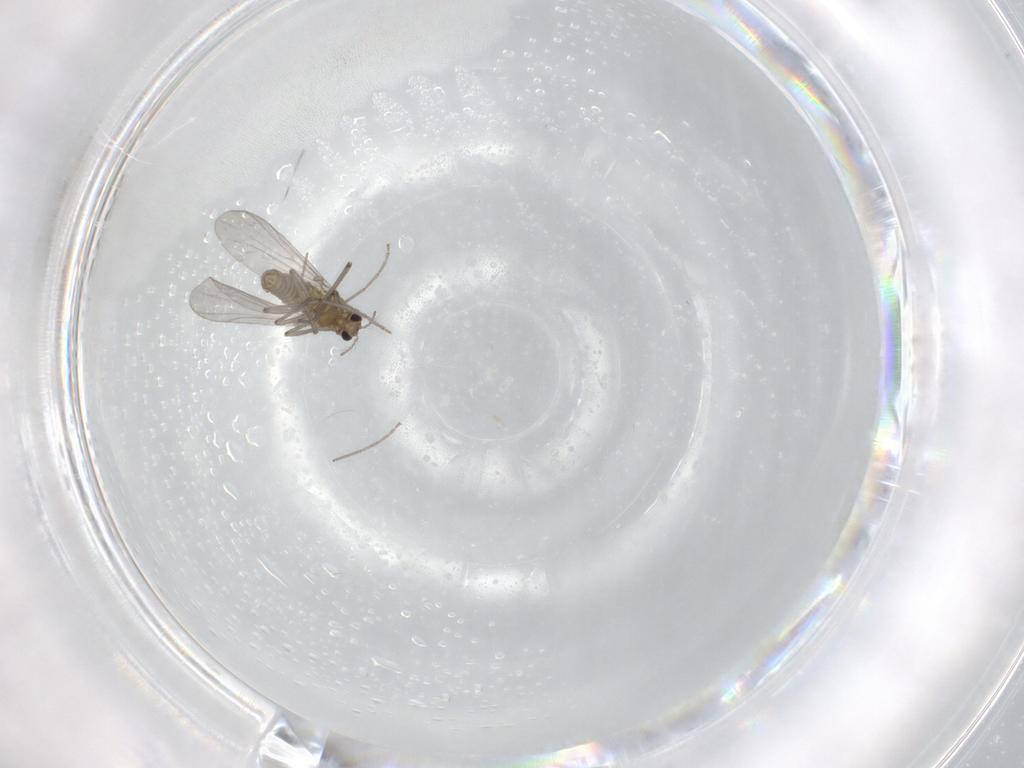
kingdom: Animalia
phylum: Arthropoda
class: Insecta
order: Diptera
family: Chironomidae
